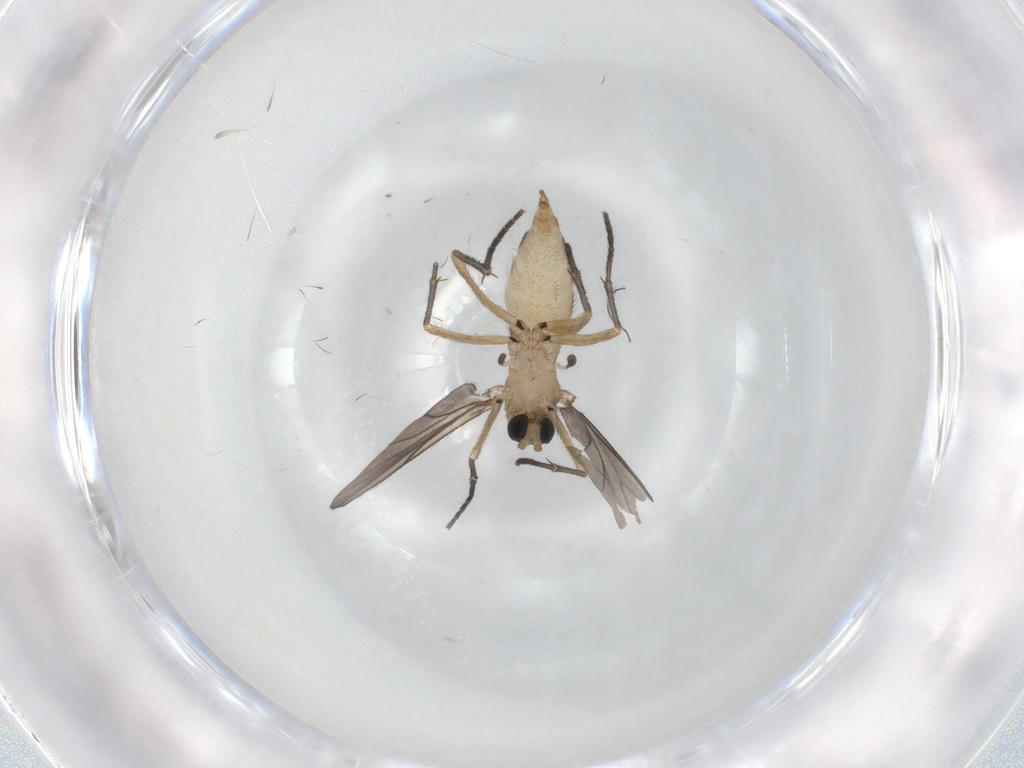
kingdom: Animalia
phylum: Arthropoda
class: Insecta
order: Diptera
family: Sciaridae
